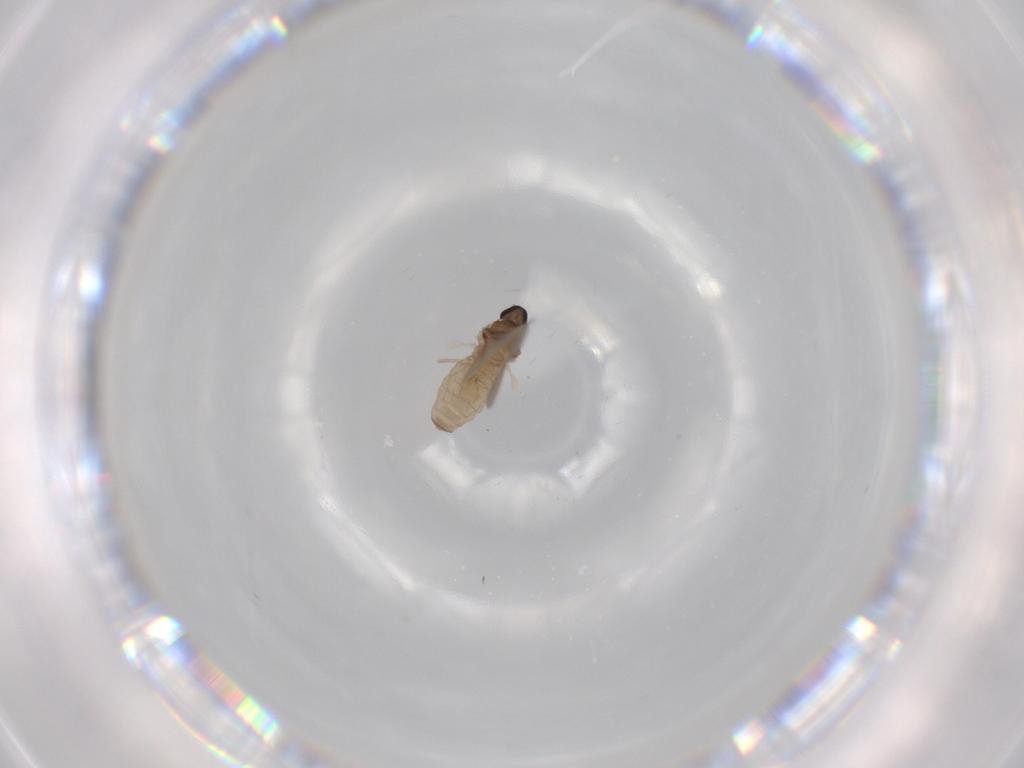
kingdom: Animalia
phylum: Arthropoda
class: Insecta
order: Diptera
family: Cecidomyiidae
